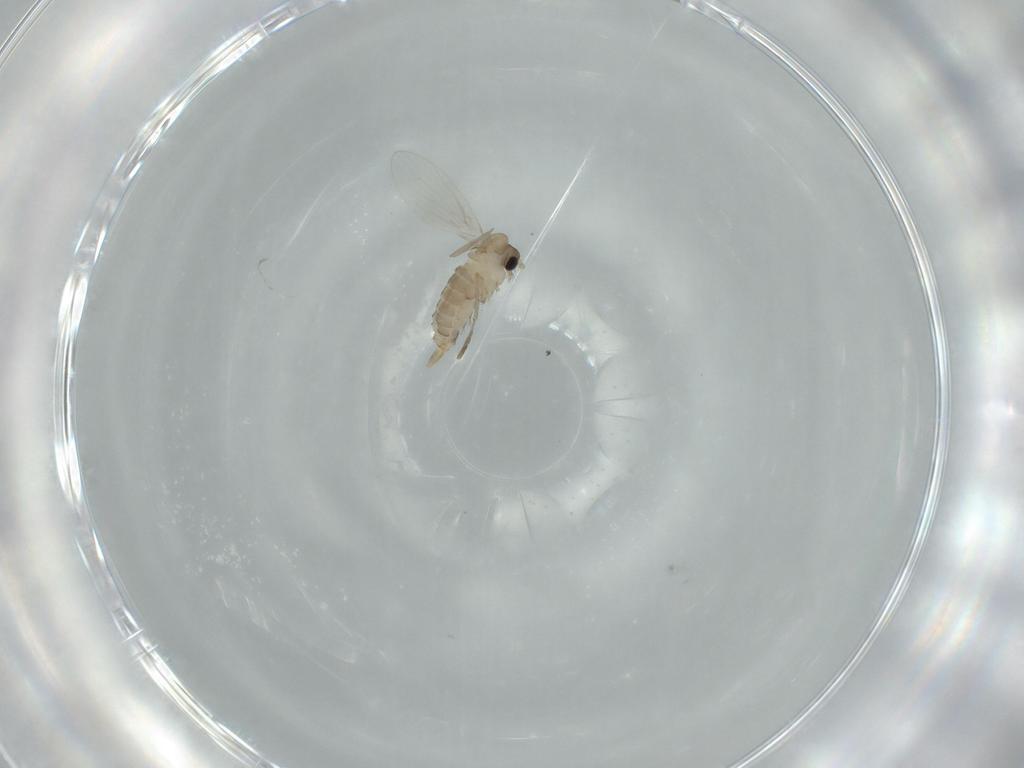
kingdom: Animalia
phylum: Arthropoda
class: Insecta
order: Diptera
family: Psychodidae
